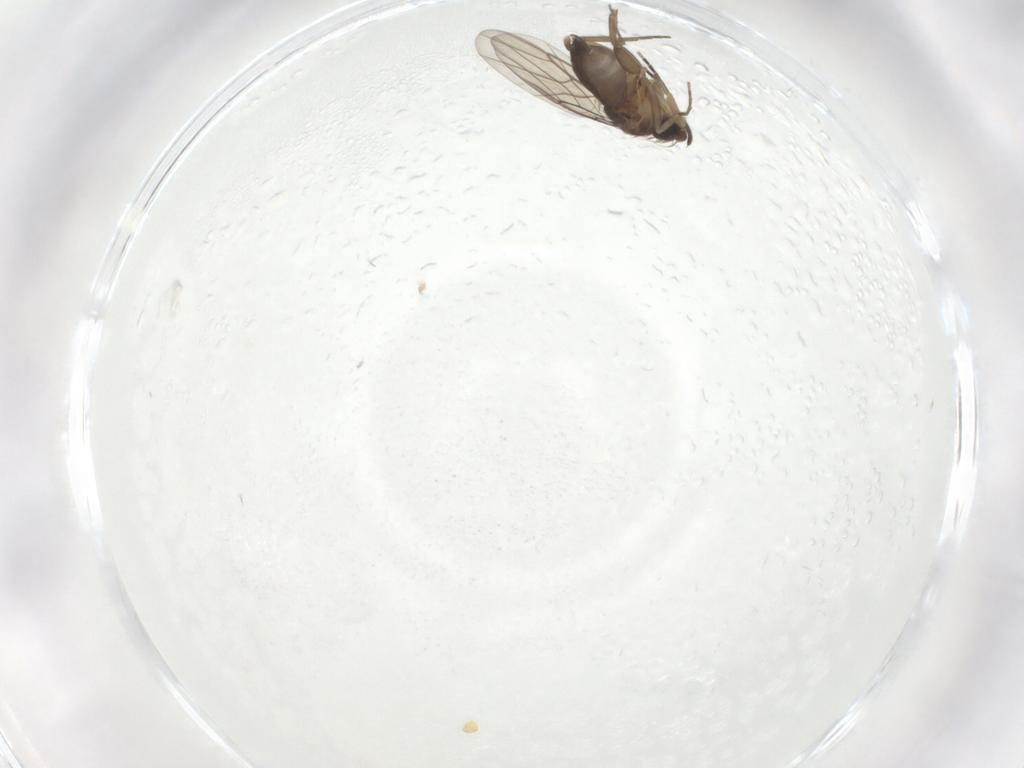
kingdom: Animalia
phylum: Arthropoda
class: Insecta
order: Diptera
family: Phoridae
